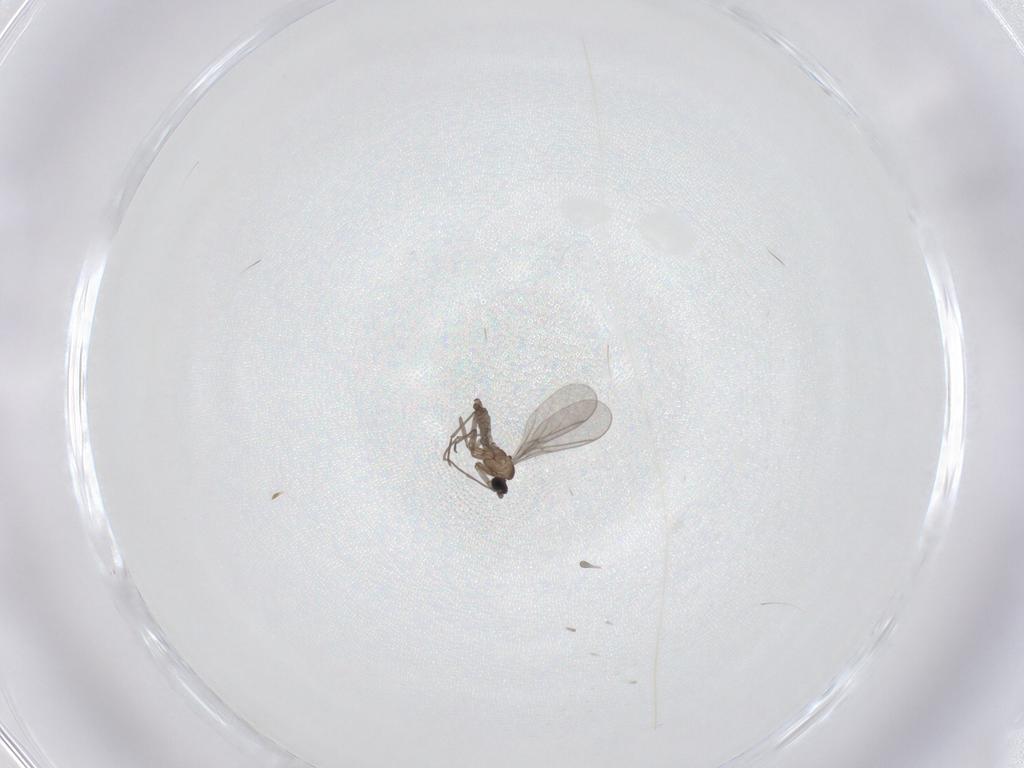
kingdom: Animalia
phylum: Arthropoda
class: Insecta
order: Diptera
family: Sciaridae
